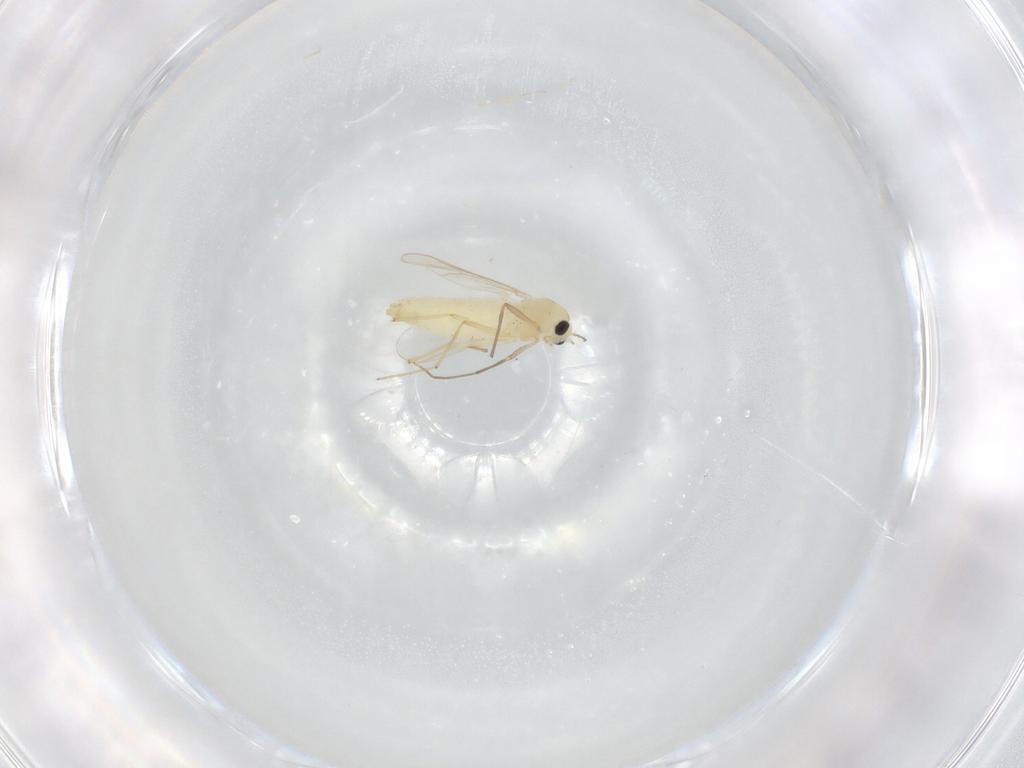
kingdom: Animalia
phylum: Arthropoda
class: Insecta
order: Diptera
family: Chironomidae
